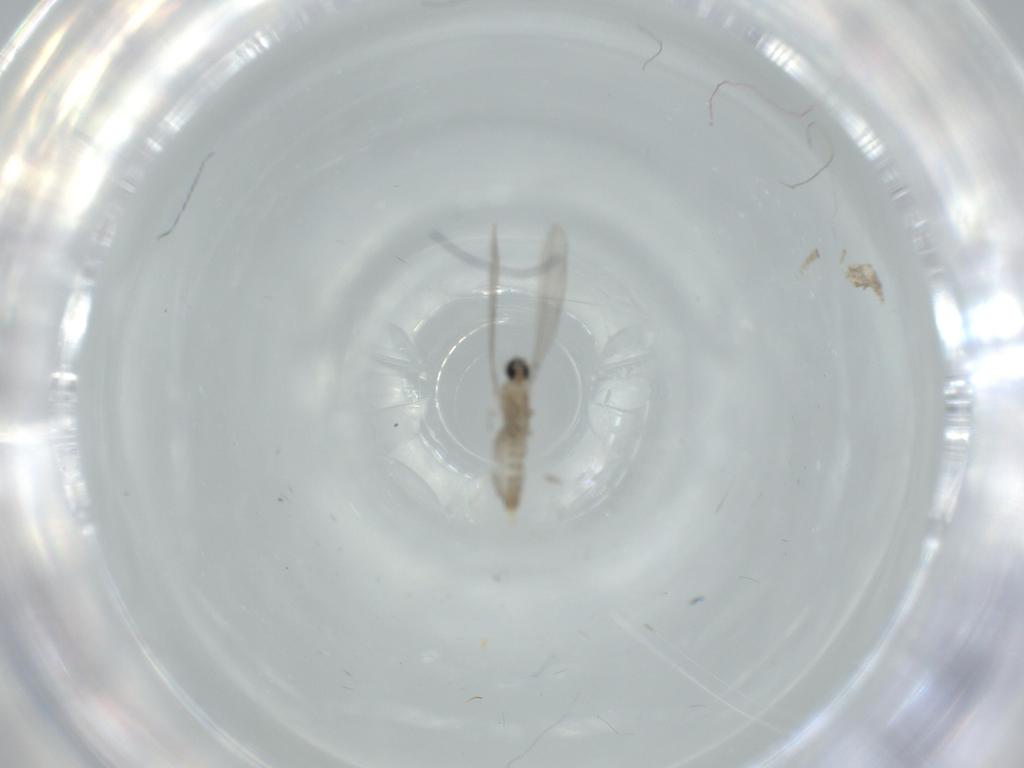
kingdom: Animalia
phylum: Arthropoda
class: Insecta
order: Diptera
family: Cecidomyiidae
